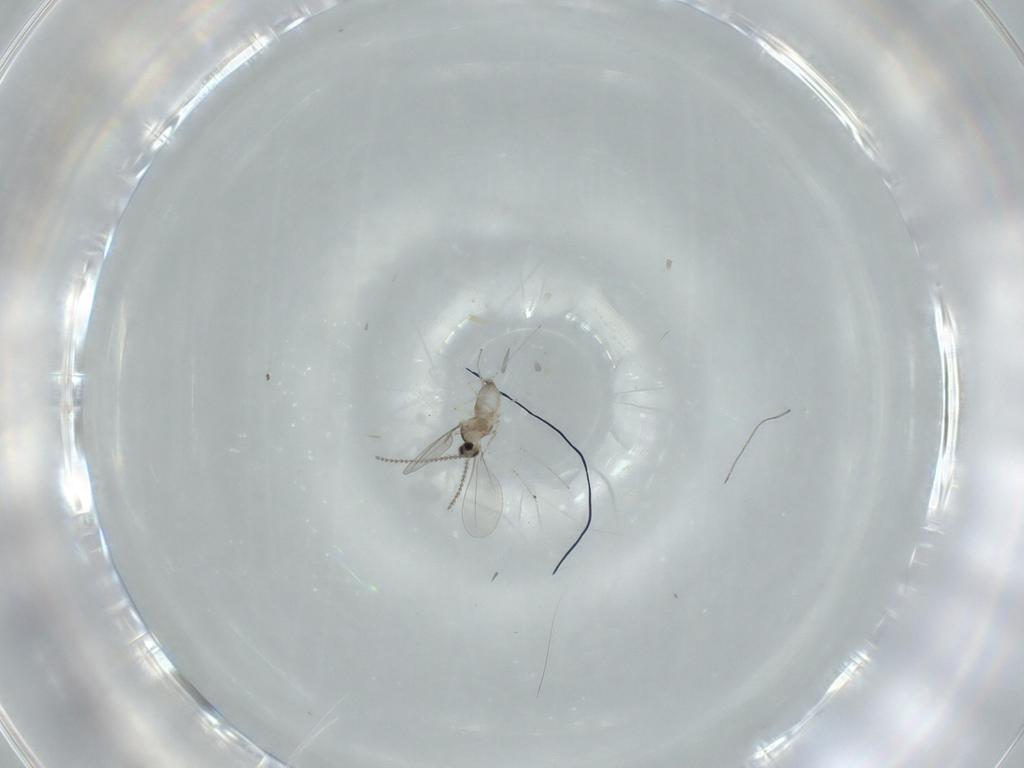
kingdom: Animalia
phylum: Arthropoda
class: Insecta
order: Diptera
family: Cecidomyiidae
